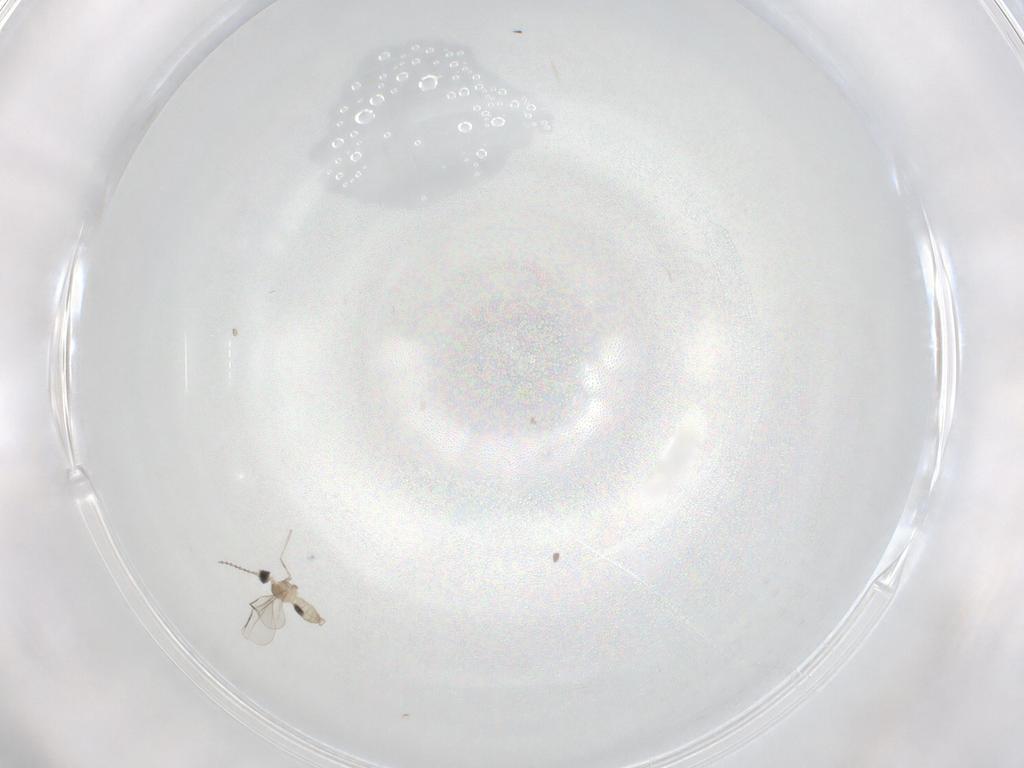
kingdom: Animalia
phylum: Arthropoda
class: Insecta
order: Diptera
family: Cecidomyiidae
